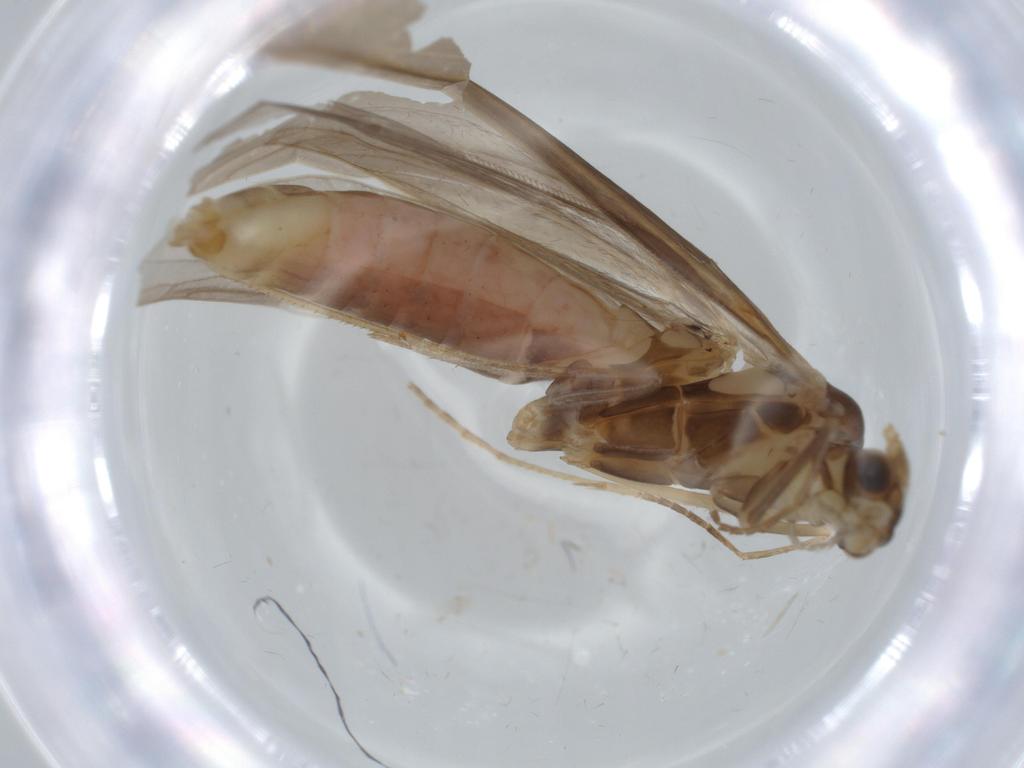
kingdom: Animalia
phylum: Arthropoda
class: Insecta
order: Trichoptera
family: Leptoceridae
